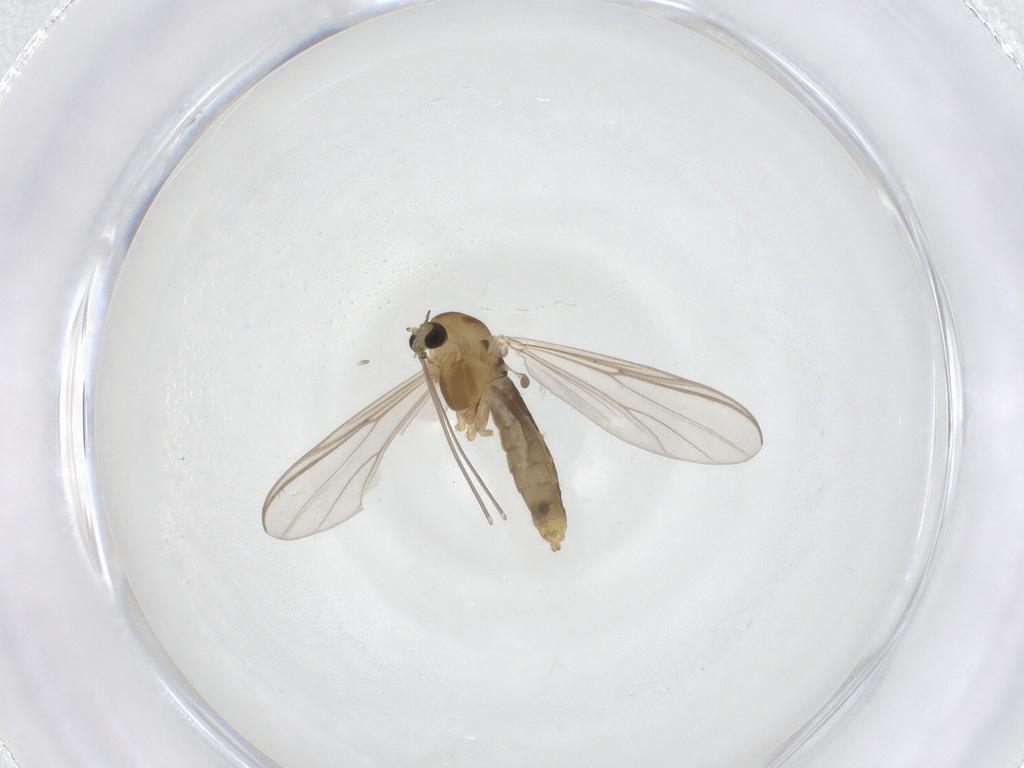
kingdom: Animalia
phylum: Arthropoda
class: Insecta
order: Diptera
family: Chironomidae
